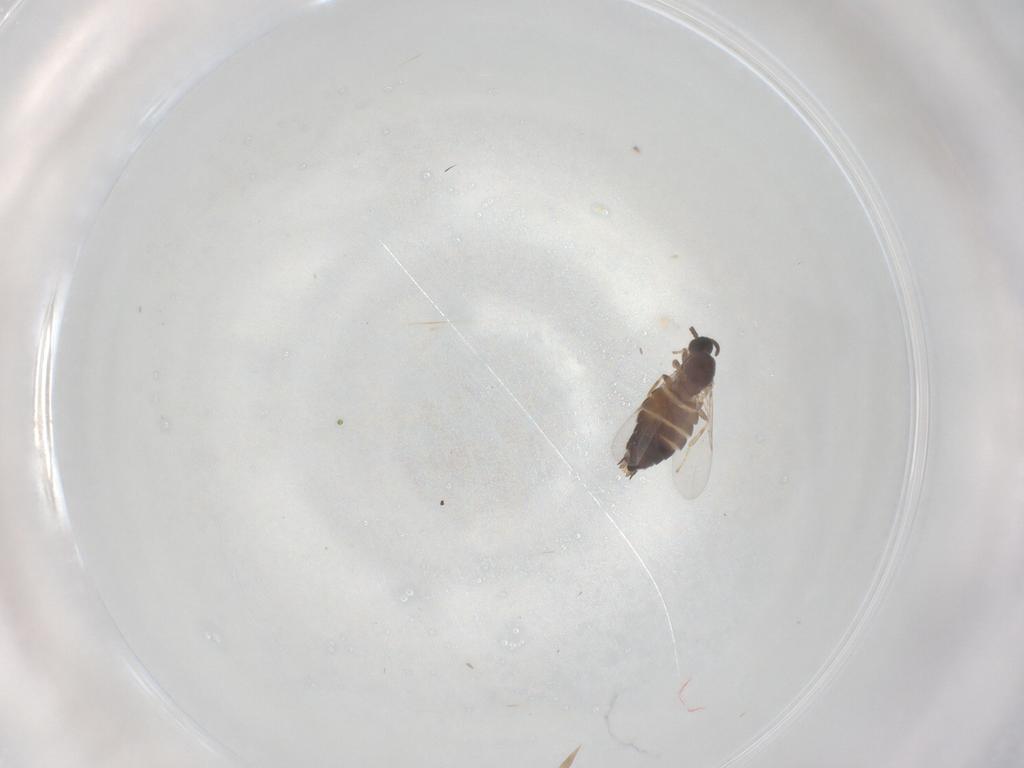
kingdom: Animalia
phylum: Arthropoda
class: Insecta
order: Diptera
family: Scatopsidae
